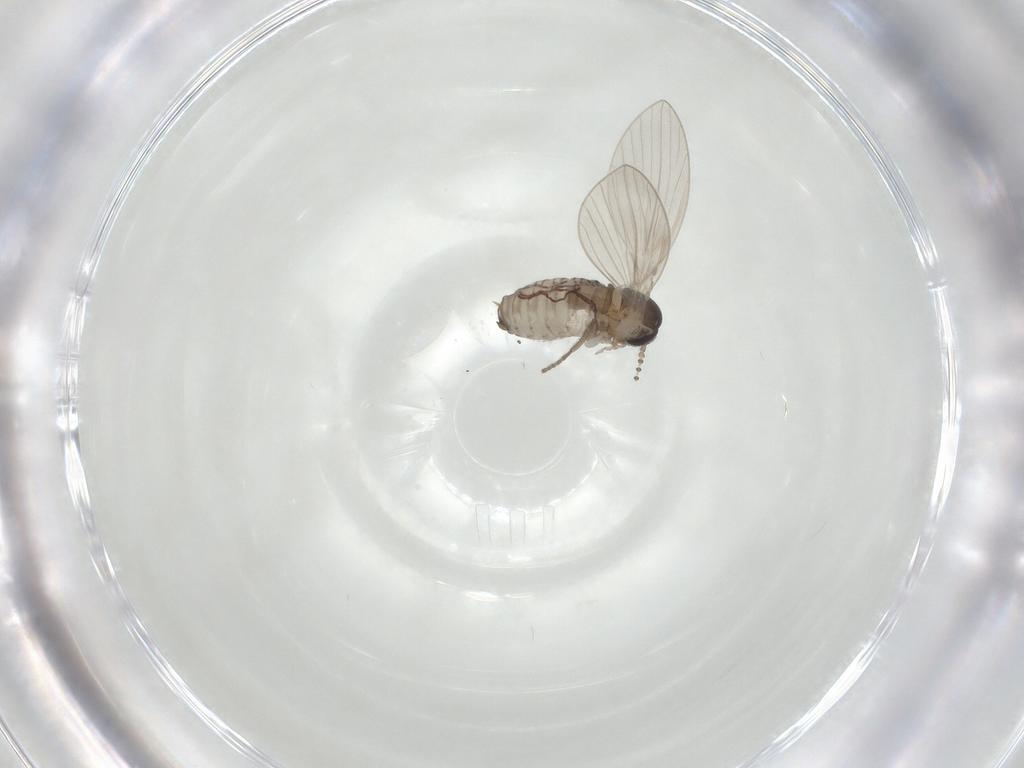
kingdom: Animalia
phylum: Arthropoda
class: Insecta
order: Diptera
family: Psychodidae
